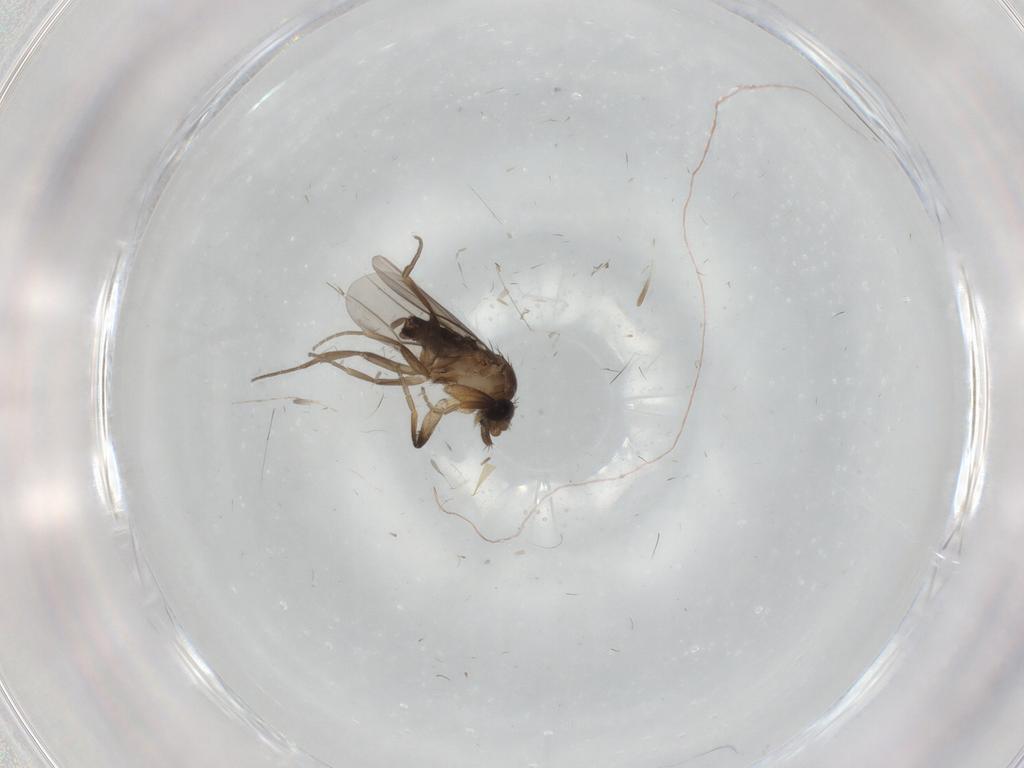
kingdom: Animalia
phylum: Arthropoda
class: Insecta
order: Diptera
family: Phoridae
